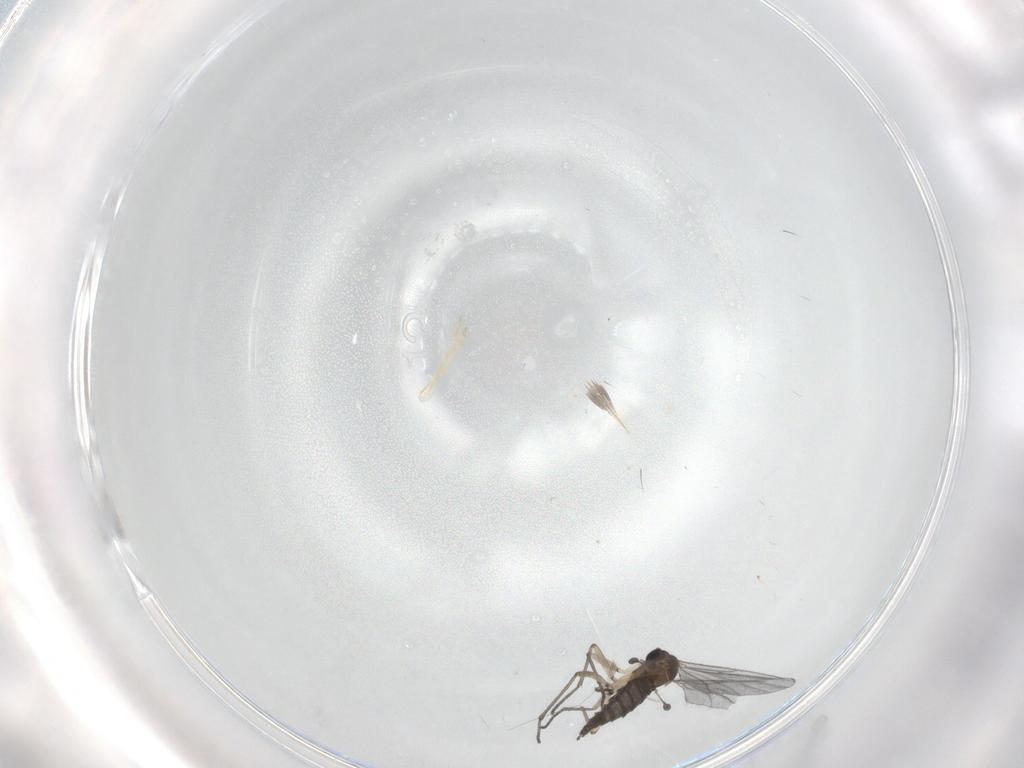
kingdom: Animalia
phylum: Arthropoda
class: Insecta
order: Diptera
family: Sciaridae
